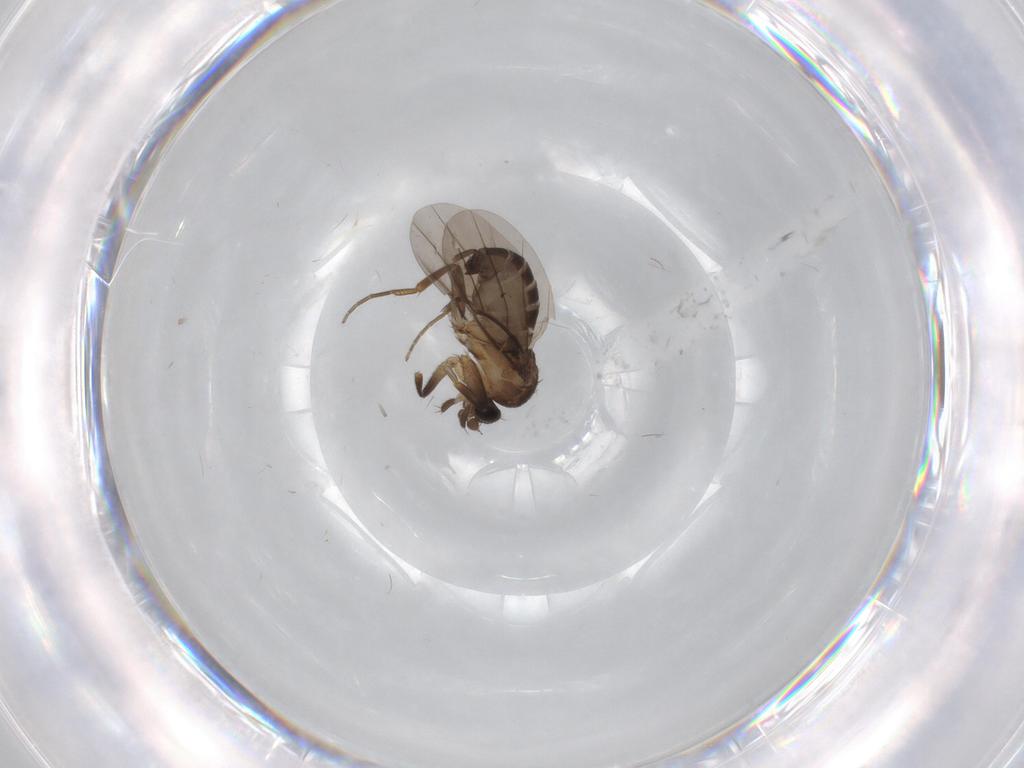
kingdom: Animalia
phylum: Arthropoda
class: Insecta
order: Diptera
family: Phoridae
